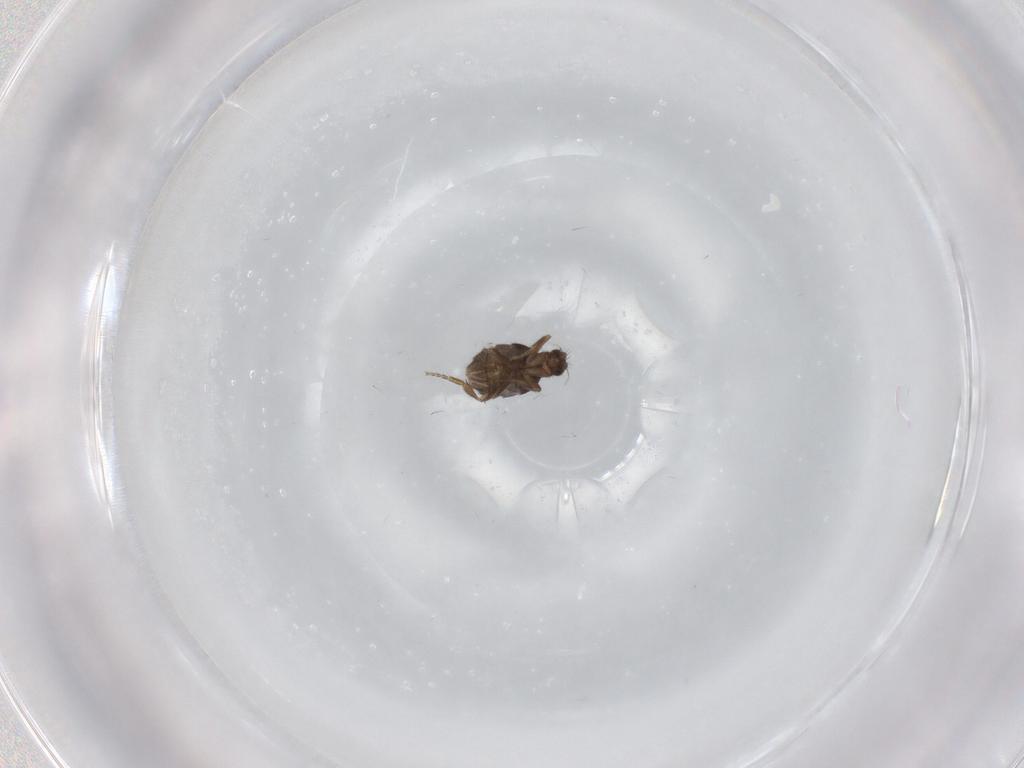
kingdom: Animalia
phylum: Arthropoda
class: Insecta
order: Diptera
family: Phoridae
